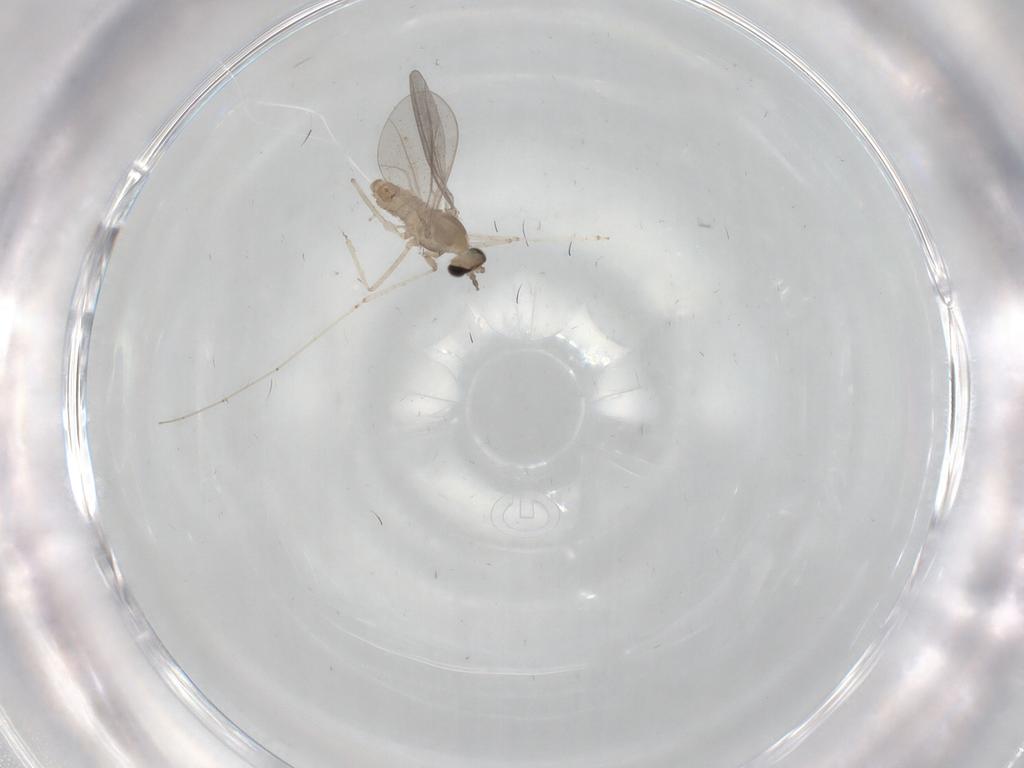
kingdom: Animalia
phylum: Arthropoda
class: Insecta
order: Diptera
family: Cecidomyiidae
